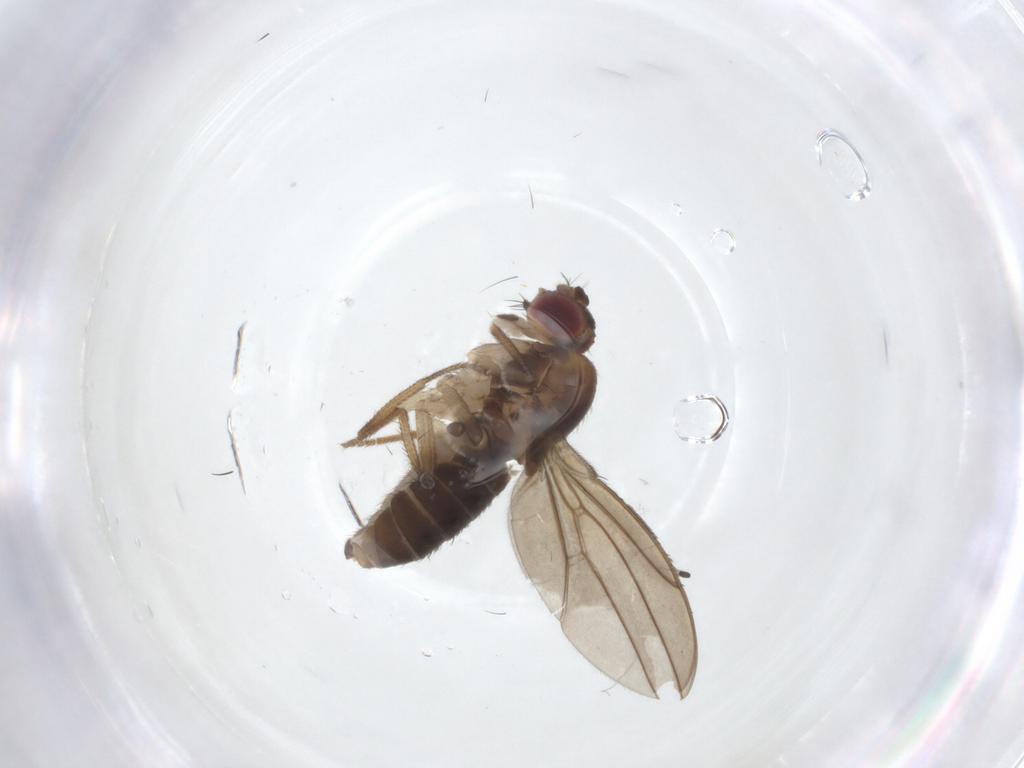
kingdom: Animalia
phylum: Arthropoda
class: Insecta
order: Diptera
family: Drosophilidae
